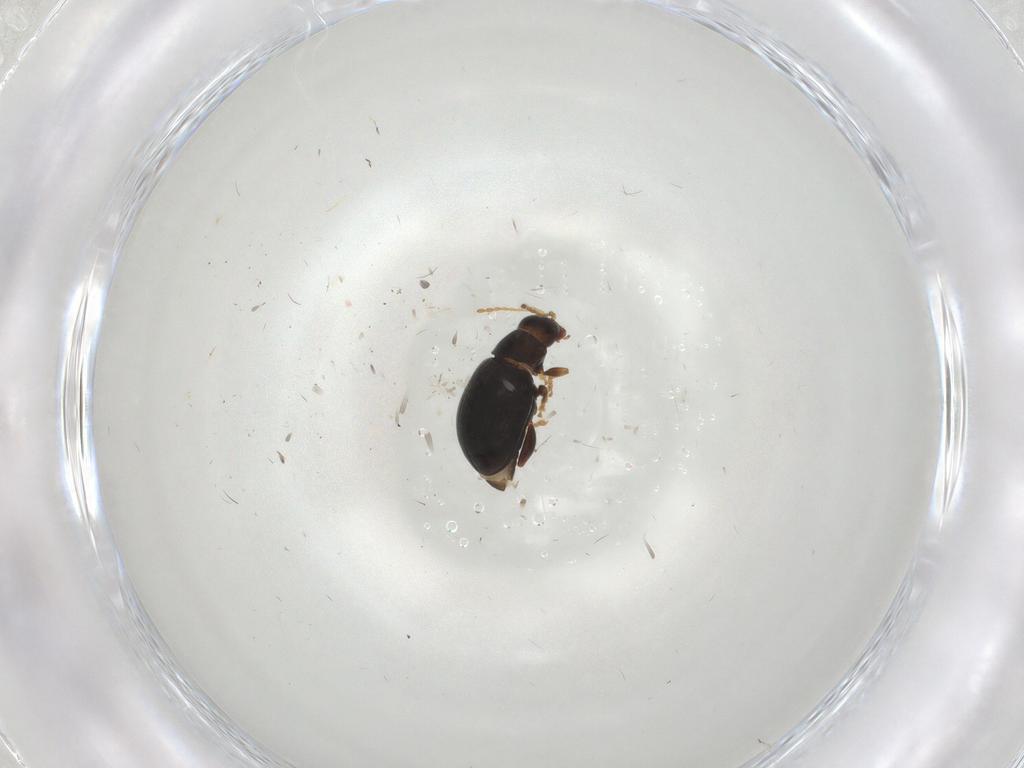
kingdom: Animalia
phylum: Arthropoda
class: Insecta
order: Coleoptera
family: Chrysomelidae
